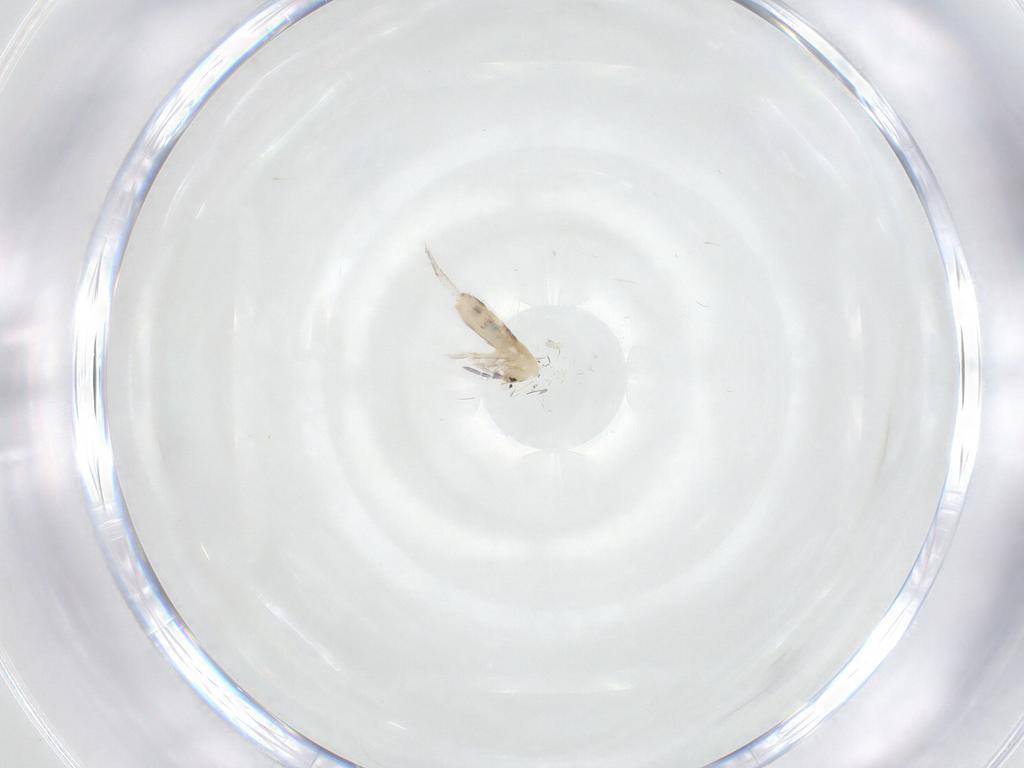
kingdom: Animalia
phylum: Arthropoda
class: Collembola
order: Entomobryomorpha
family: Entomobryidae
